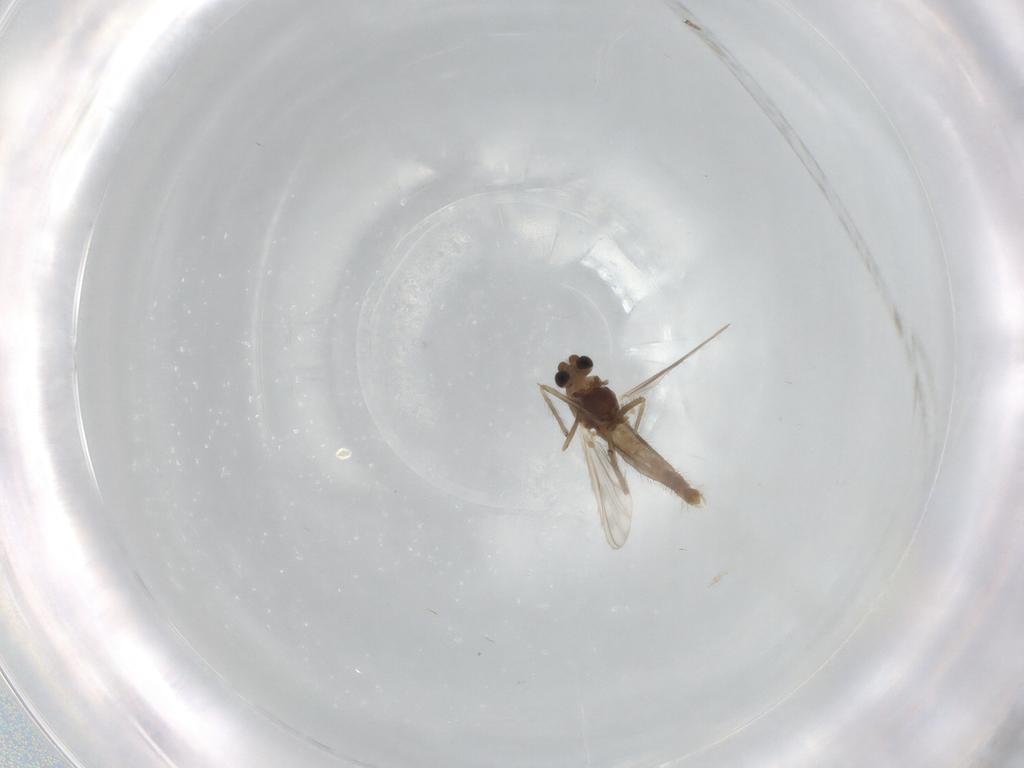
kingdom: Animalia
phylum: Arthropoda
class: Insecta
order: Diptera
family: Chironomidae
